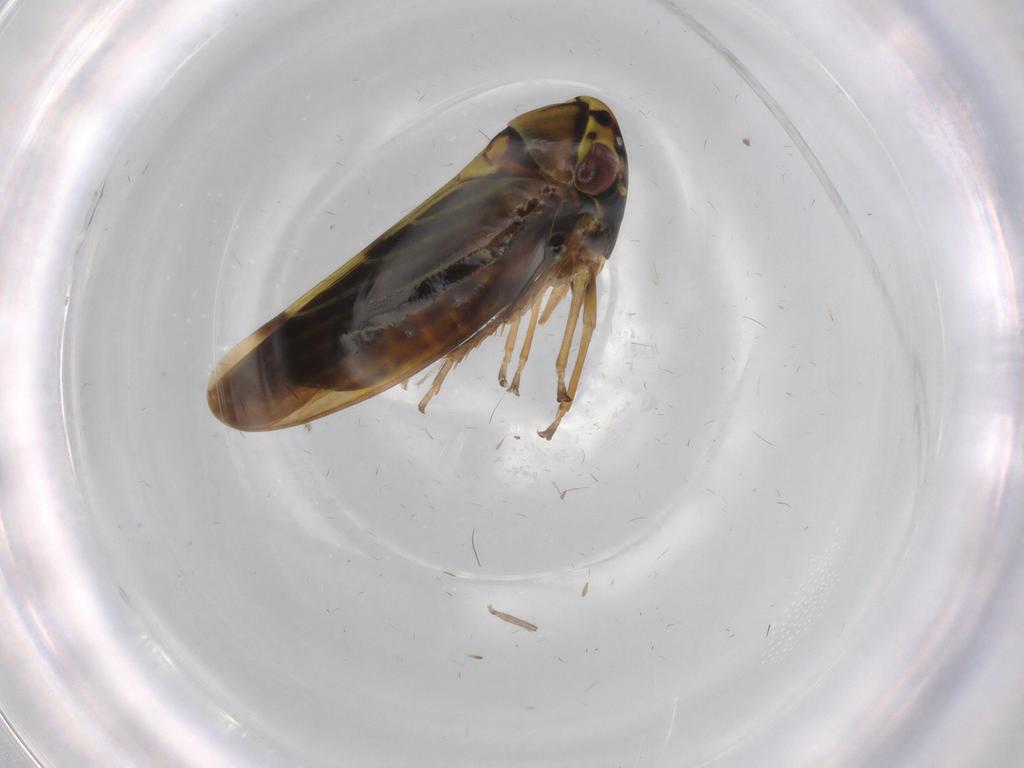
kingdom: Animalia
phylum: Arthropoda
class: Insecta
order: Hemiptera
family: Cicadellidae
